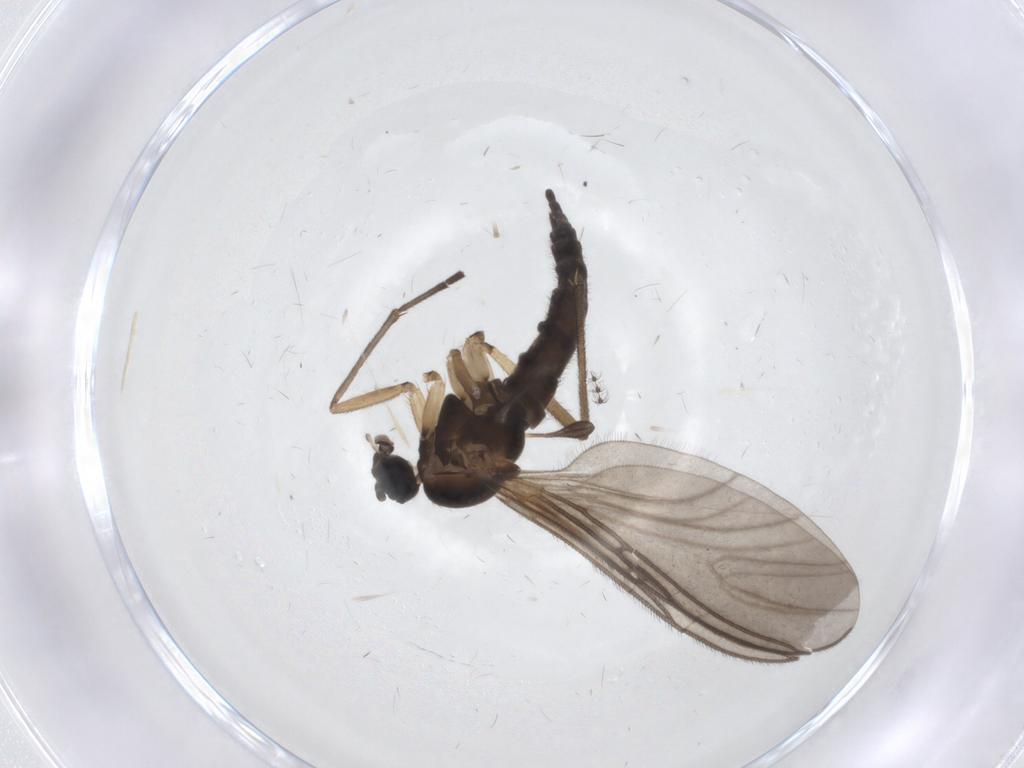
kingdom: Animalia
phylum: Arthropoda
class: Insecta
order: Diptera
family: Sciaridae
